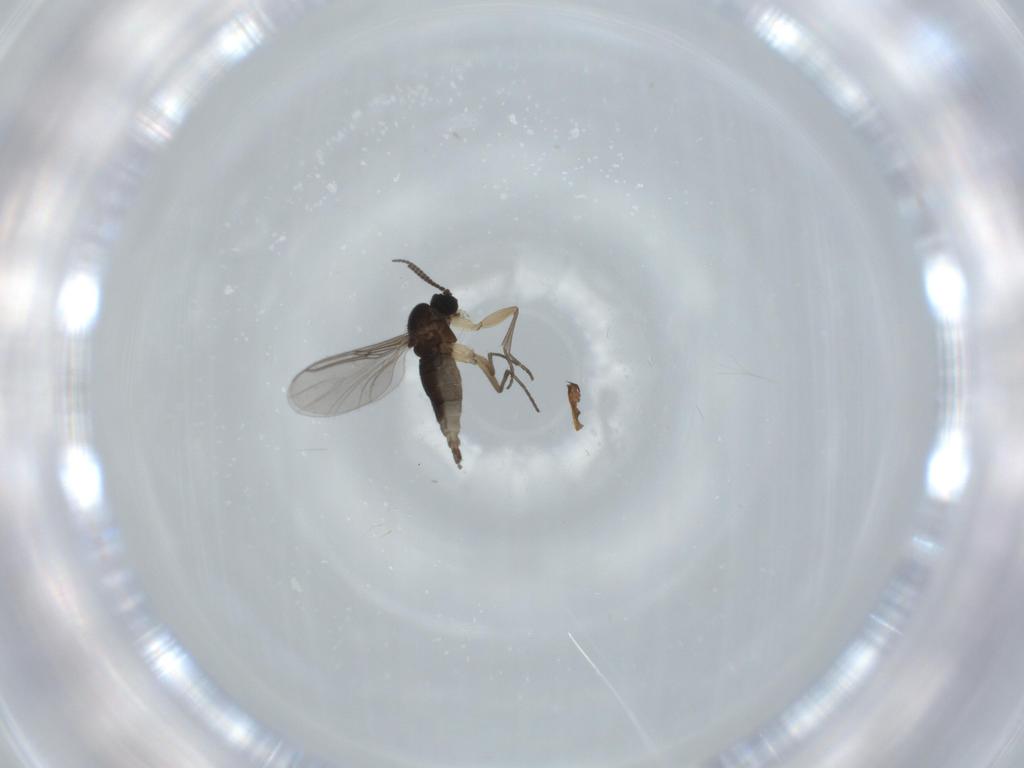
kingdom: Animalia
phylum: Arthropoda
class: Insecta
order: Diptera
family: Sciaridae
